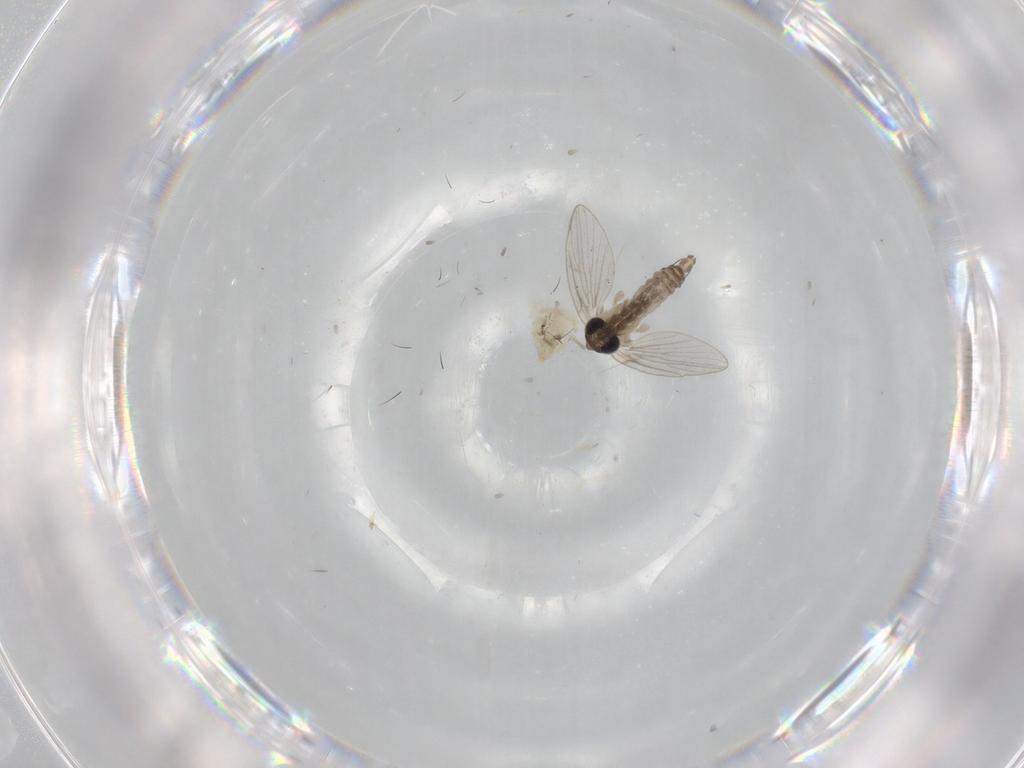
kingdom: Animalia
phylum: Arthropoda
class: Insecta
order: Diptera
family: Psychodidae
